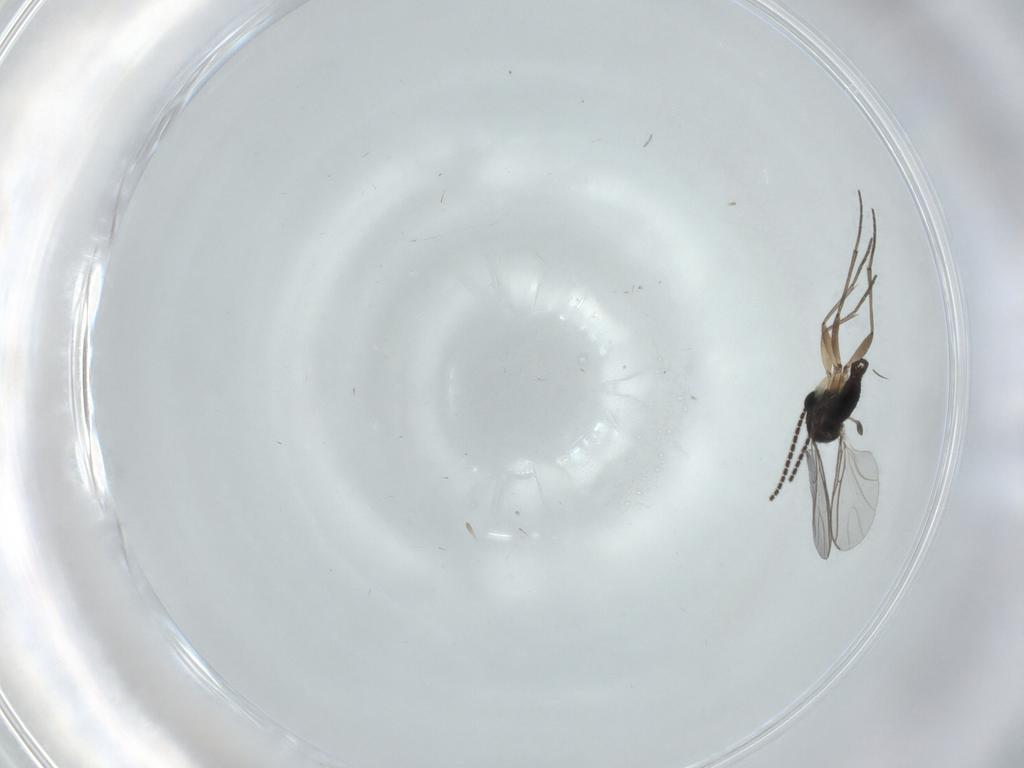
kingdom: Animalia
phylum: Arthropoda
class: Insecta
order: Diptera
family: Sciaridae
